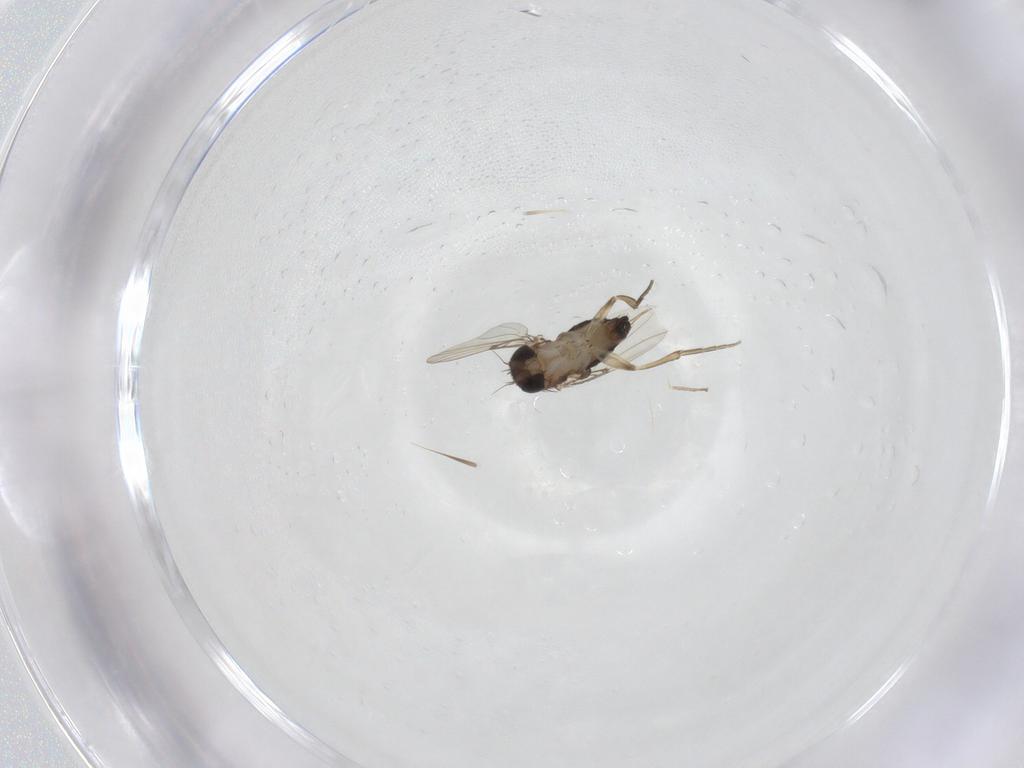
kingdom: Animalia
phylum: Arthropoda
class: Insecta
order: Diptera
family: Phoridae
